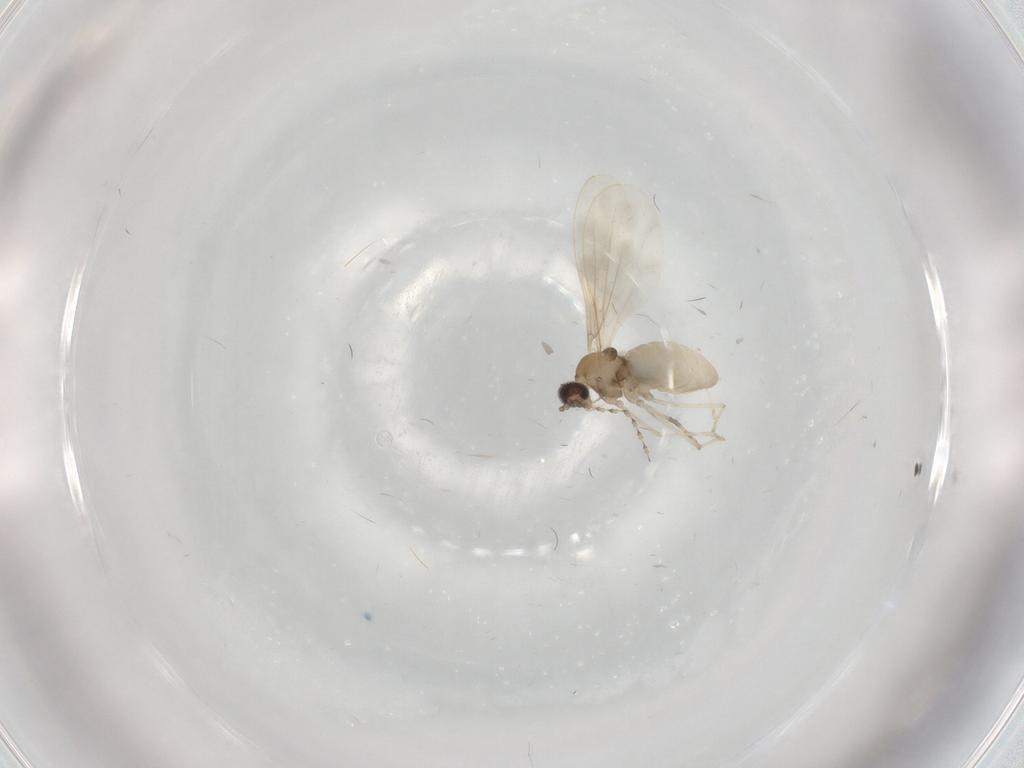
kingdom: Animalia
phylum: Arthropoda
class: Insecta
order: Diptera
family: Cecidomyiidae
